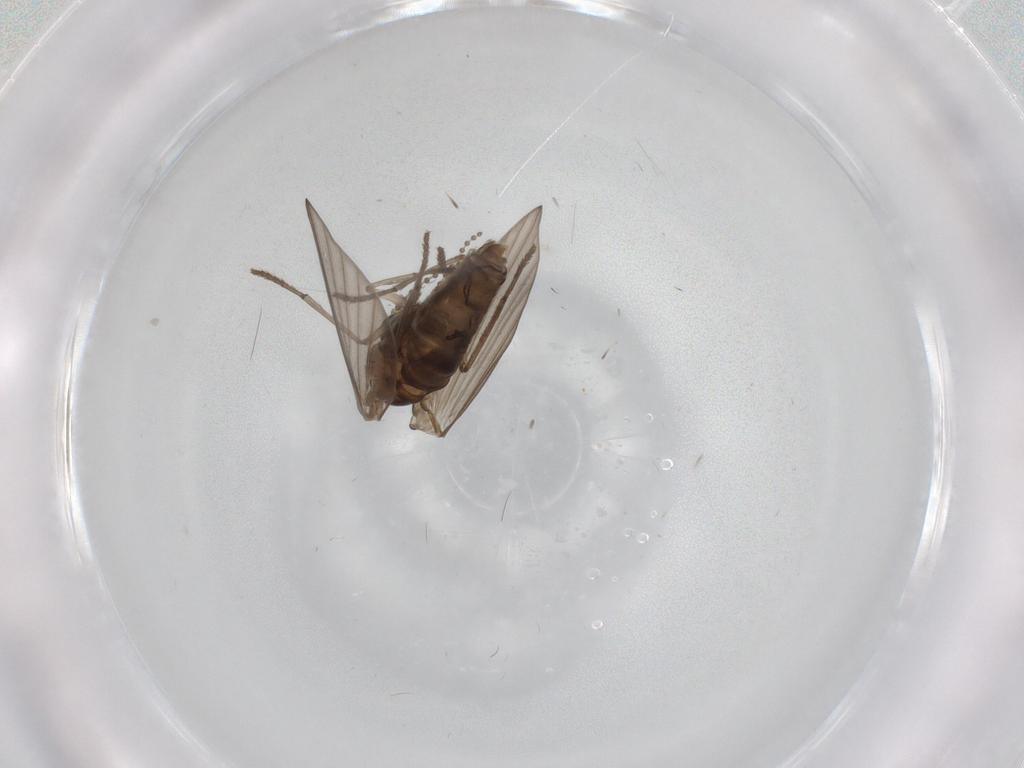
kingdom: Animalia
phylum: Arthropoda
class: Insecta
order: Diptera
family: Psychodidae
